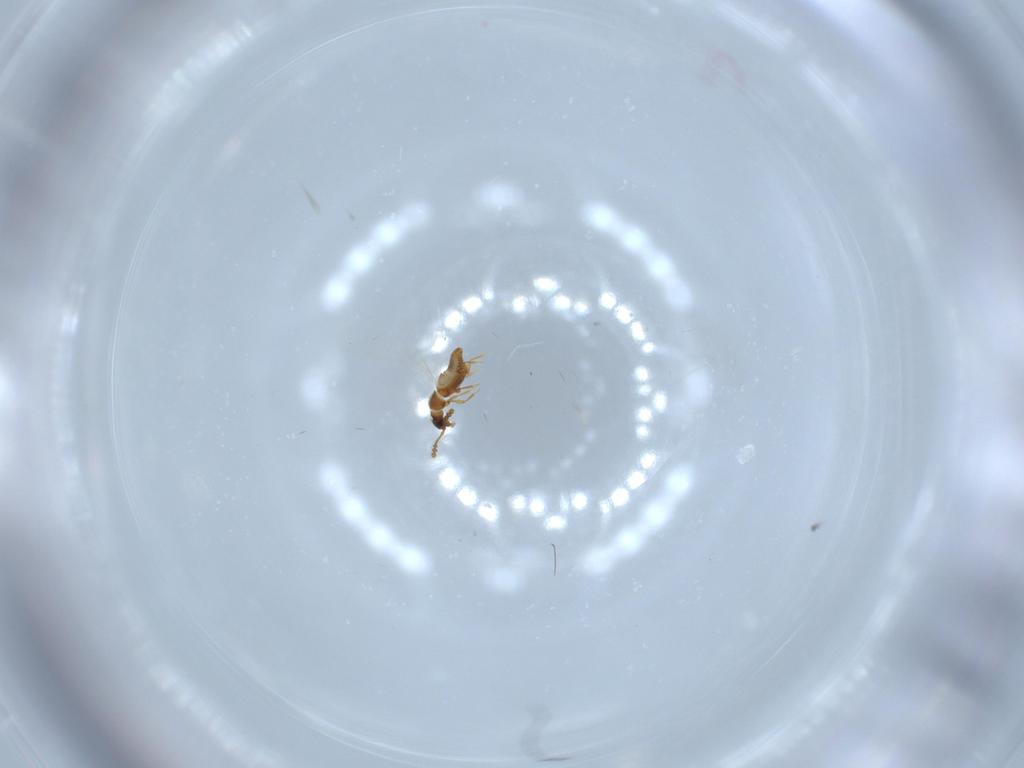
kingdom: Animalia
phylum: Arthropoda
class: Insecta
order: Coleoptera
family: Staphylinidae
